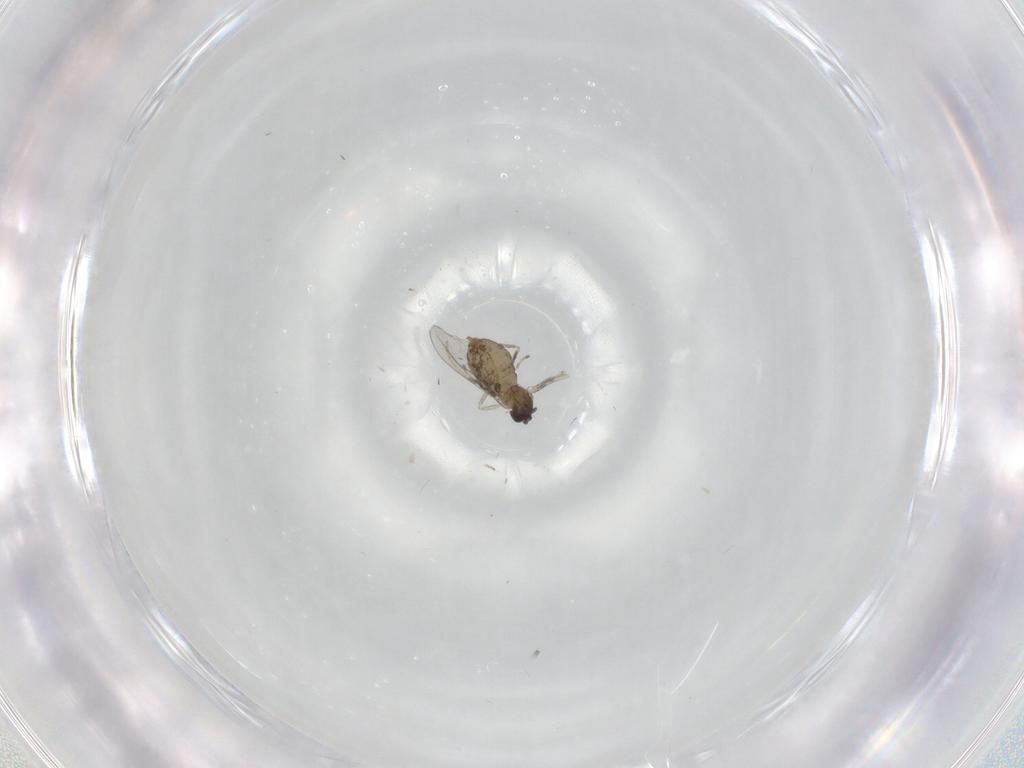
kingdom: Animalia
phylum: Arthropoda
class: Insecta
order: Diptera
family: Cecidomyiidae
